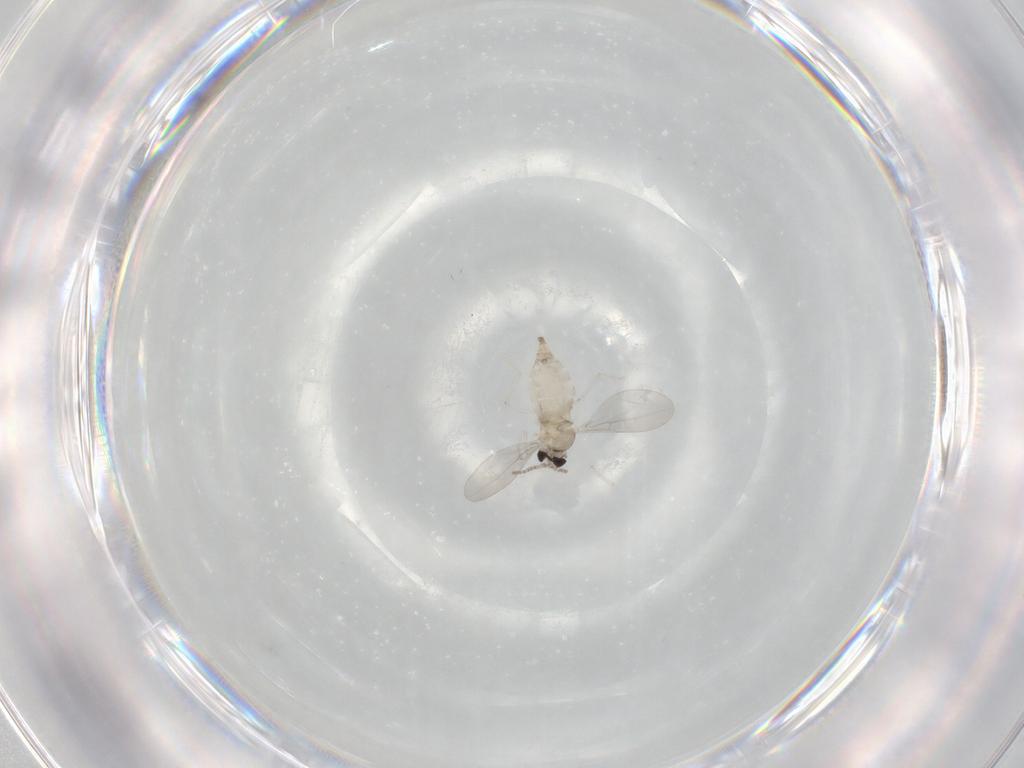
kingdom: Animalia
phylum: Arthropoda
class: Insecta
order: Diptera
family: Cecidomyiidae
